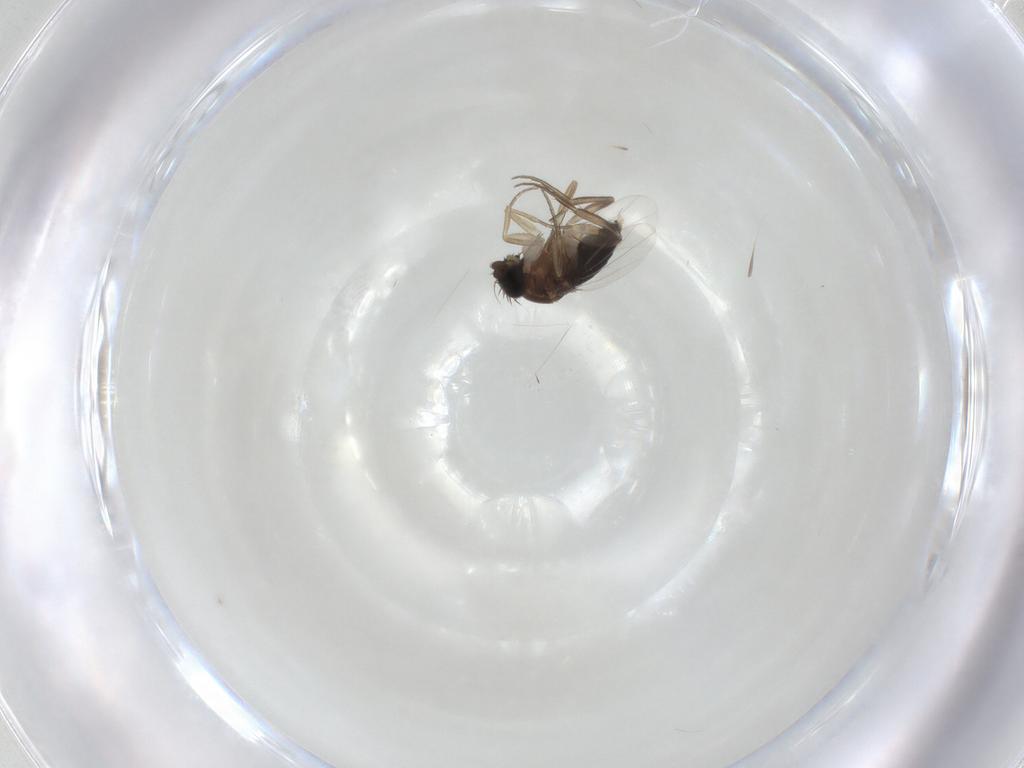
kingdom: Animalia
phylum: Arthropoda
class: Insecta
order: Diptera
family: Phoridae
